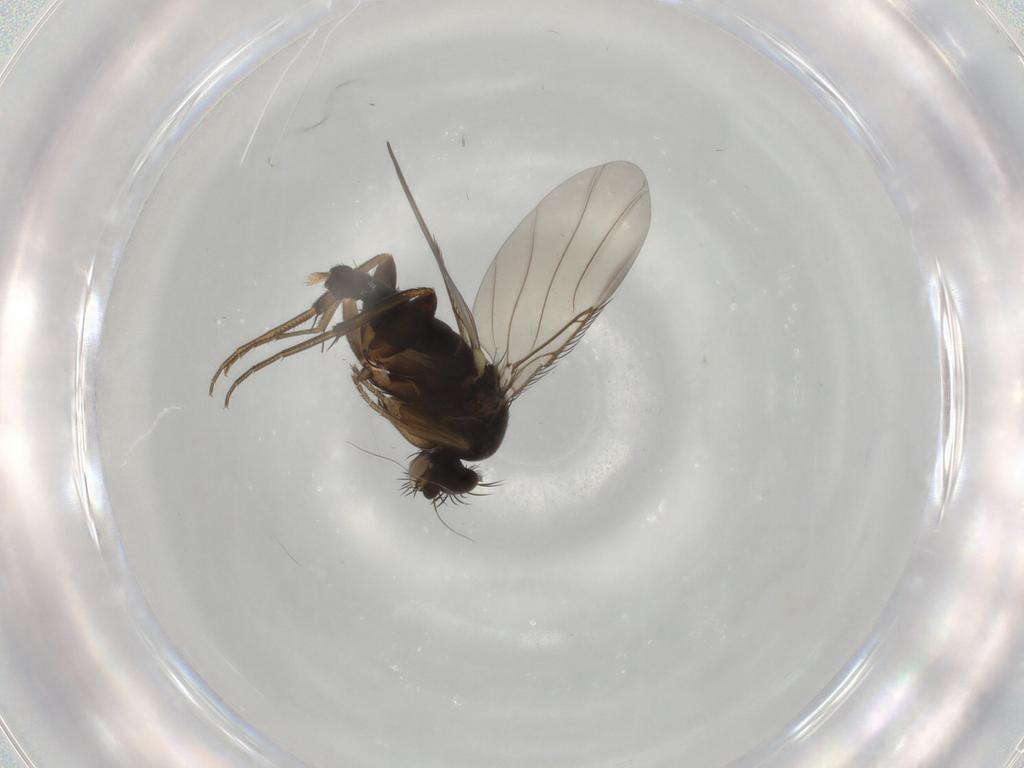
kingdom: Animalia
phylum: Arthropoda
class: Insecta
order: Diptera
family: Phoridae
